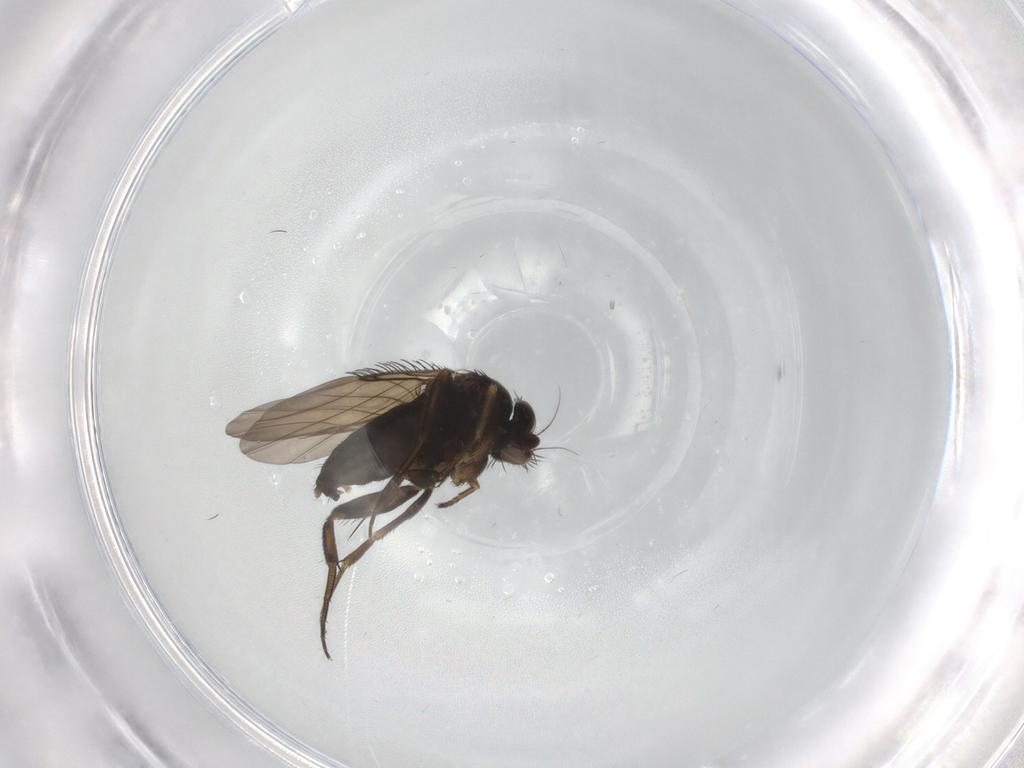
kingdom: Animalia
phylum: Arthropoda
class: Insecta
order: Diptera
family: Phoridae
